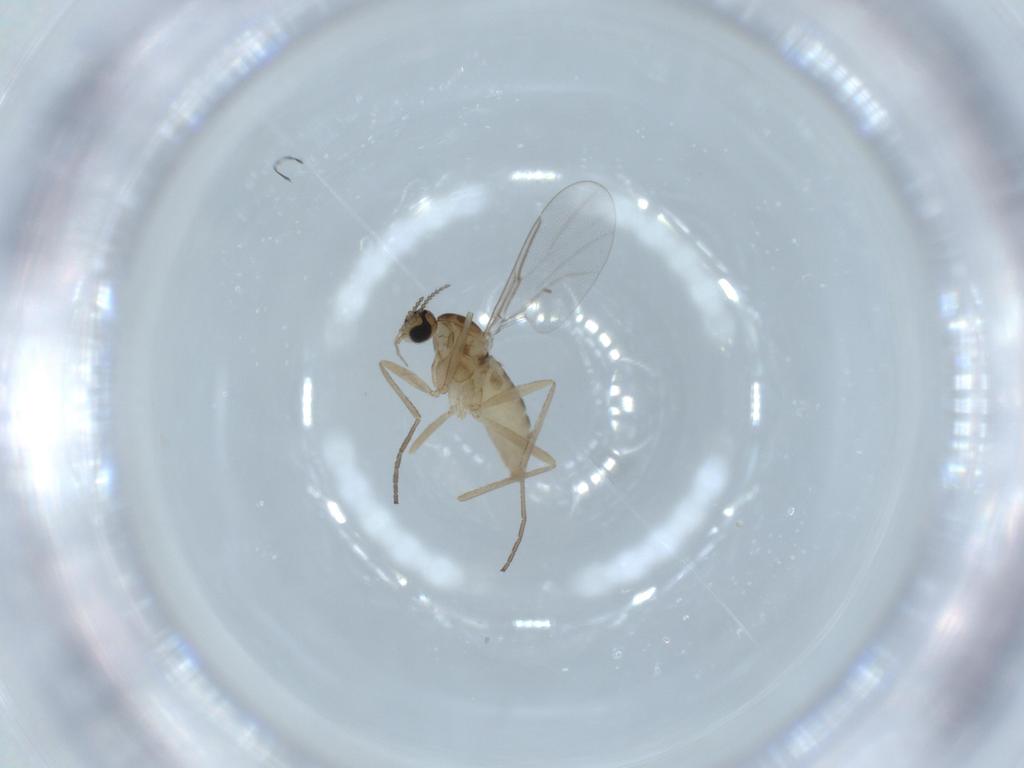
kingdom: Animalia
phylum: Arthropoda
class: Insecta
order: Diptera
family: Cecidomyiidae
